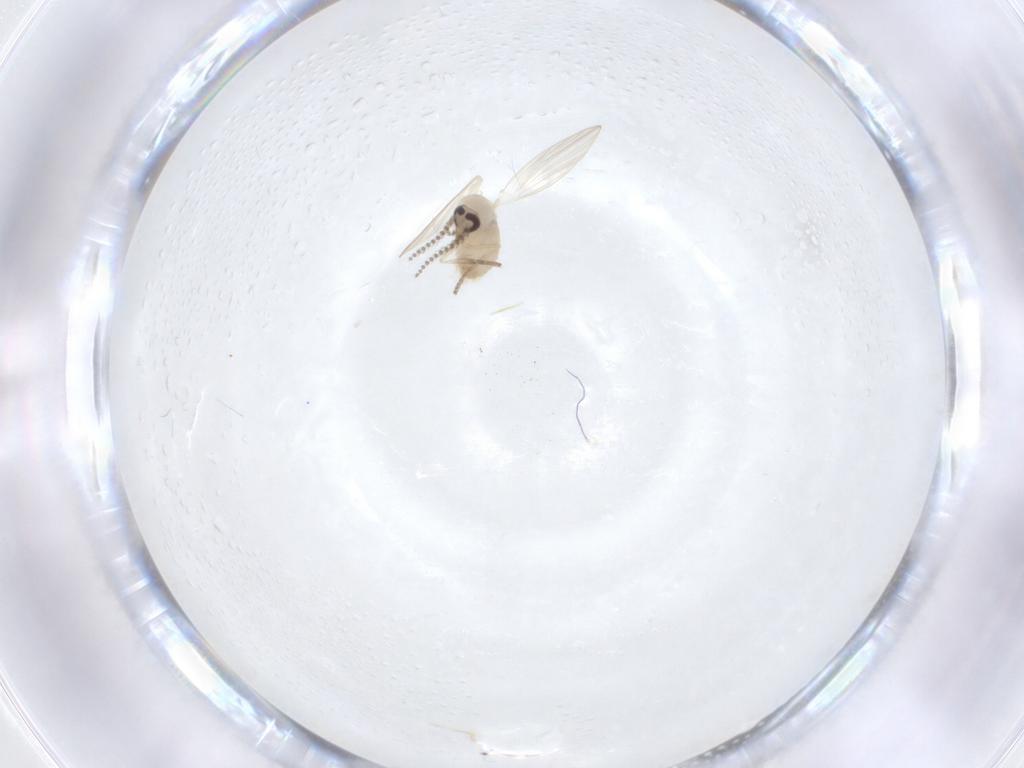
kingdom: Animalia
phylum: Arthropoda
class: Insecta
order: Diptera
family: Psychodidae
